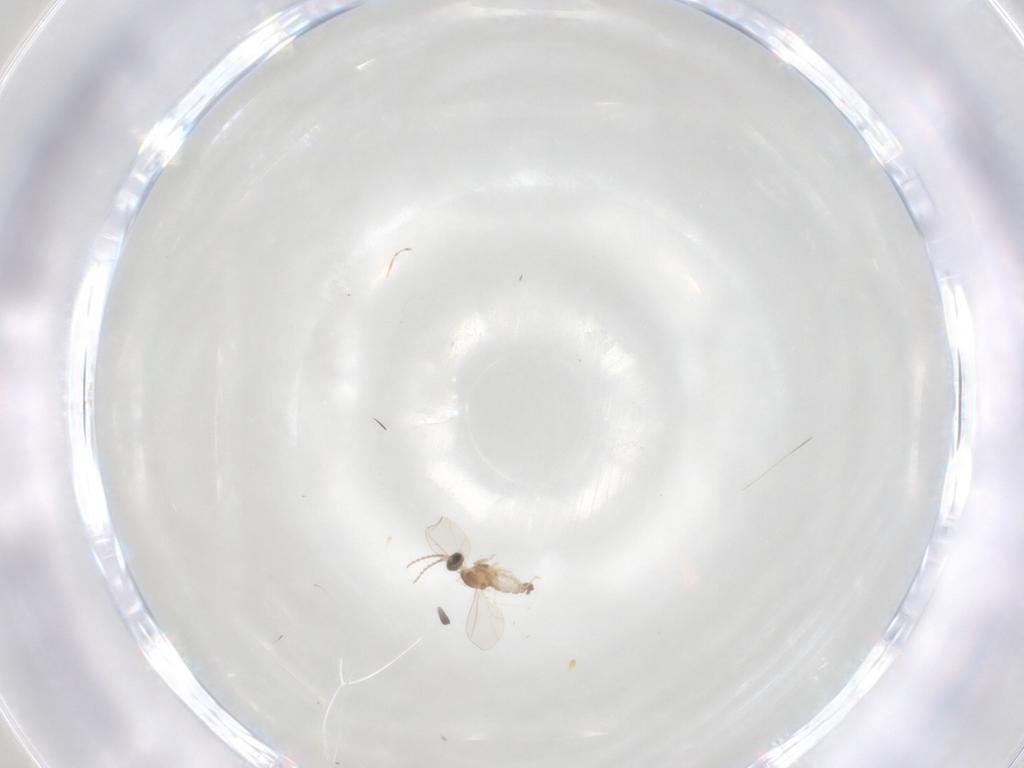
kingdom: Animalia
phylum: Arthropoda
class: Insecta
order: Diptera
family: Cecidomyiidae
